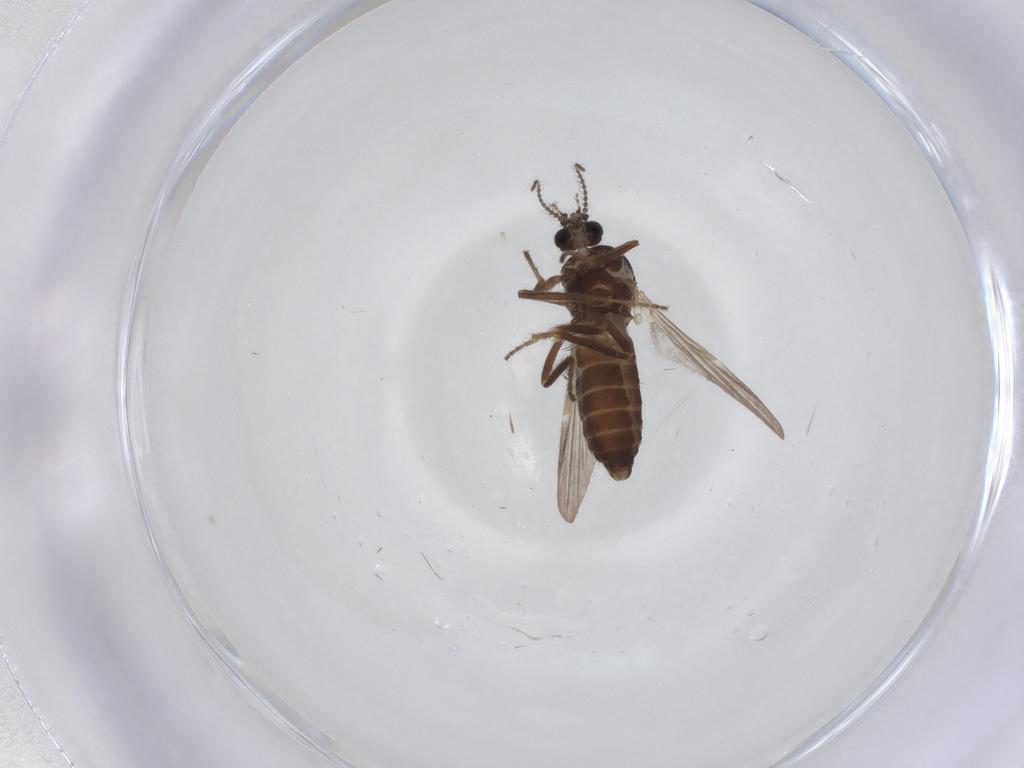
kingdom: Animalia
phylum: Arthropoda
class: Insecta
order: Diptera
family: Ceratopogonidae
